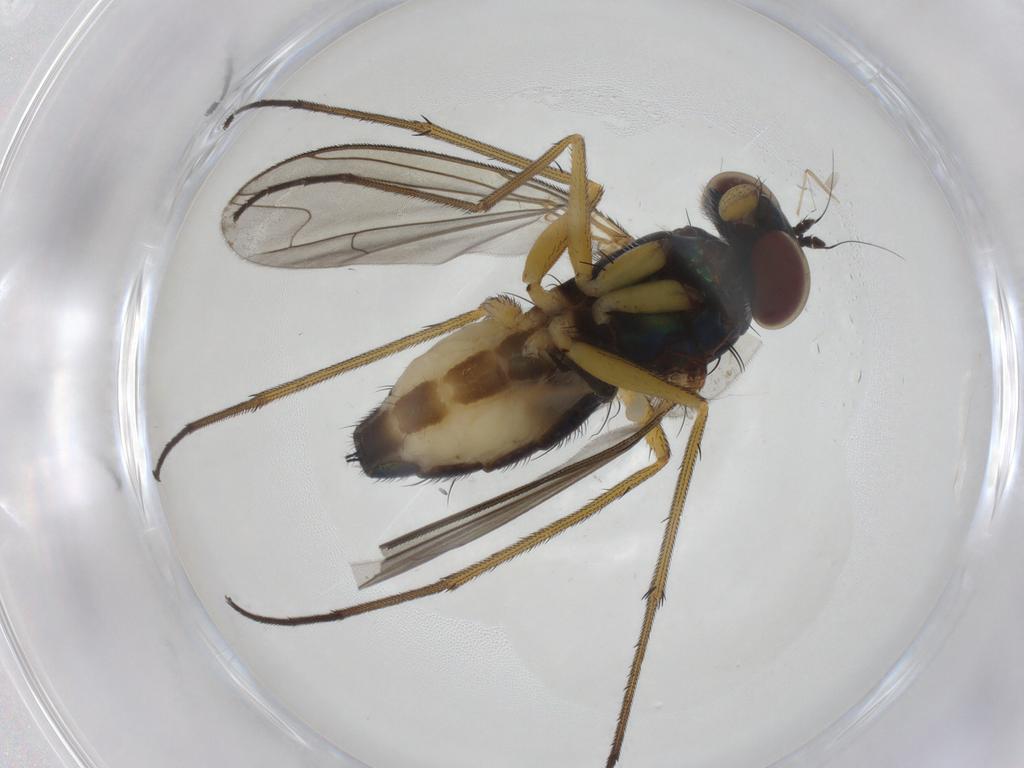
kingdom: Animalia
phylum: Arthropoda
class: Insecta
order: Diptera
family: Dolichopodidae
